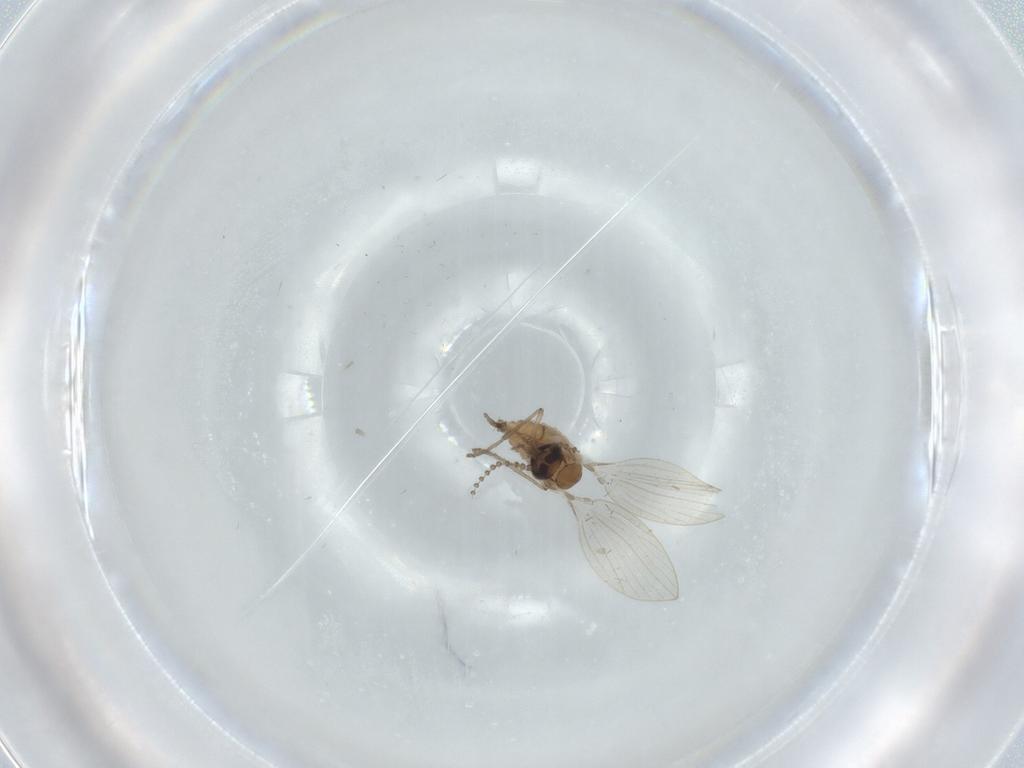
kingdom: Animalia
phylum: Arthropoda
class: Insecta
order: Diptera
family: Psychodidae
